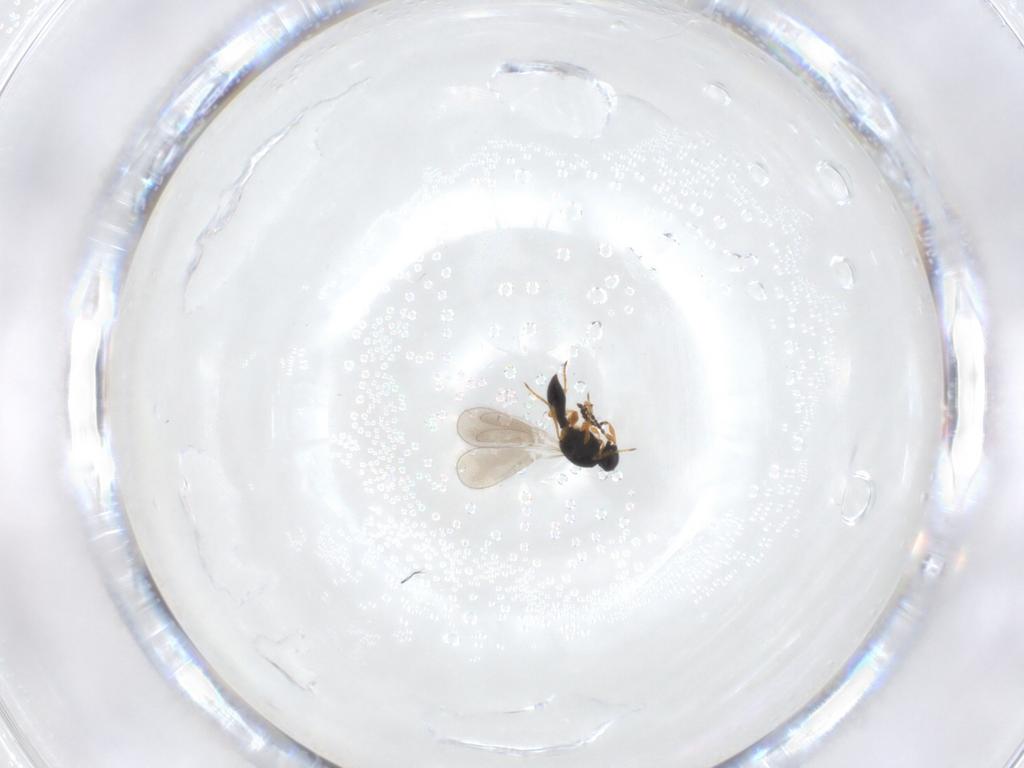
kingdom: Animalia
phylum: Arthropoda
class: Insecta
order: Hymenoptera
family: Platygastridae
